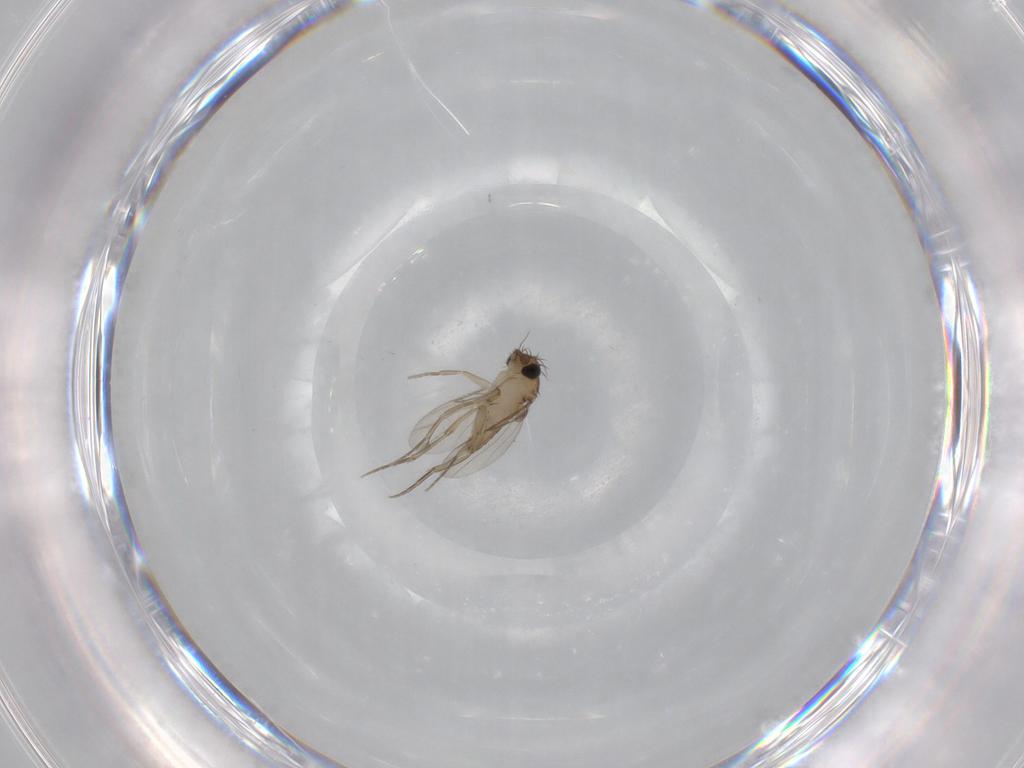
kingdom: Animalia
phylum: Arthropoda
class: Insecta
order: Diptera
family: Phoridae
